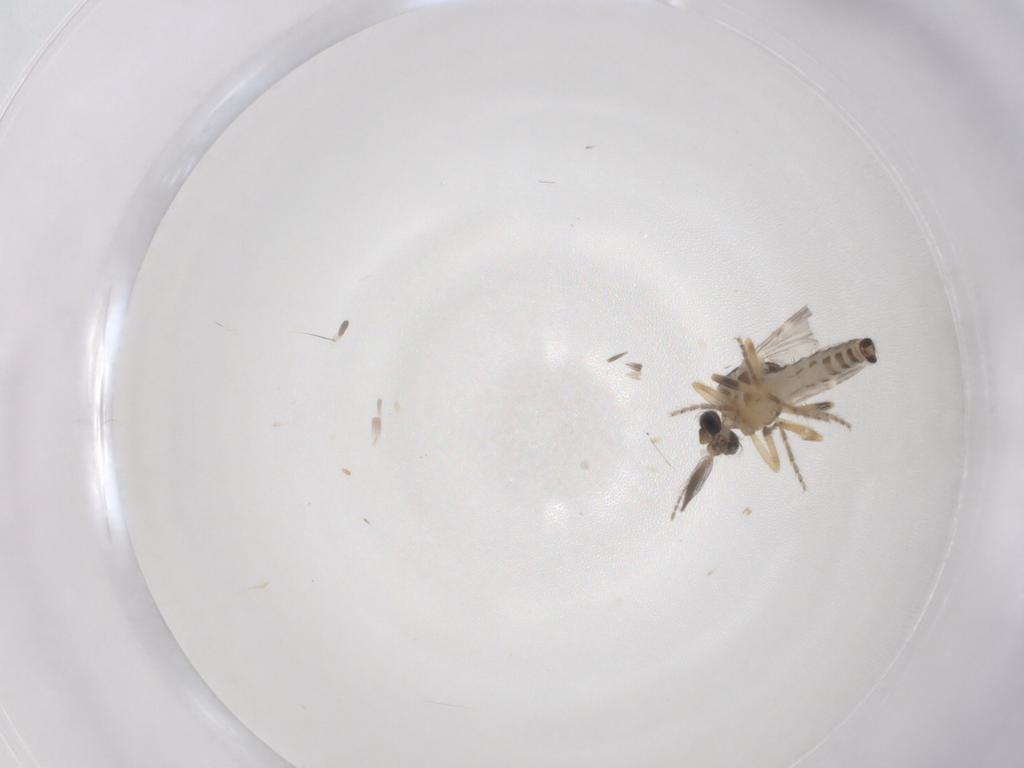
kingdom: Animalia
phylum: Arthropoda
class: Insecta
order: Diptera
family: Ceratopogonidae
